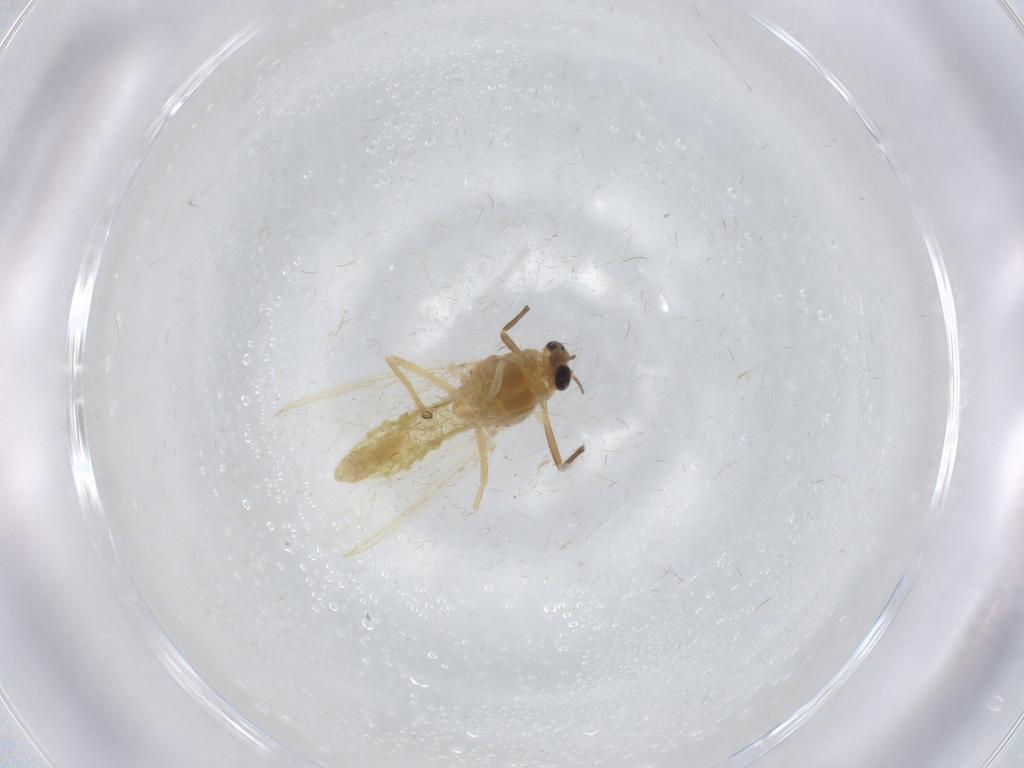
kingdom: Animalia
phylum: Arthropoda
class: Insecta
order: Diptera
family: Chironomidae
